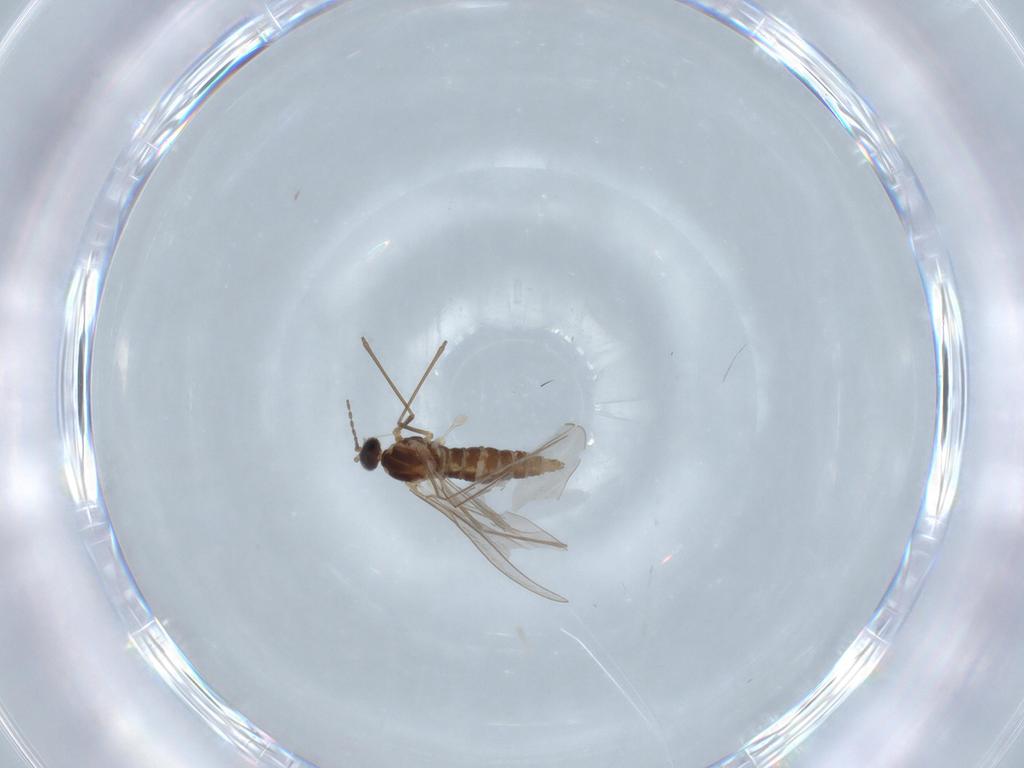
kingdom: Animalia
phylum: Arthropoda
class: Insecta
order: Diptera
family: Cecidomyiidae
